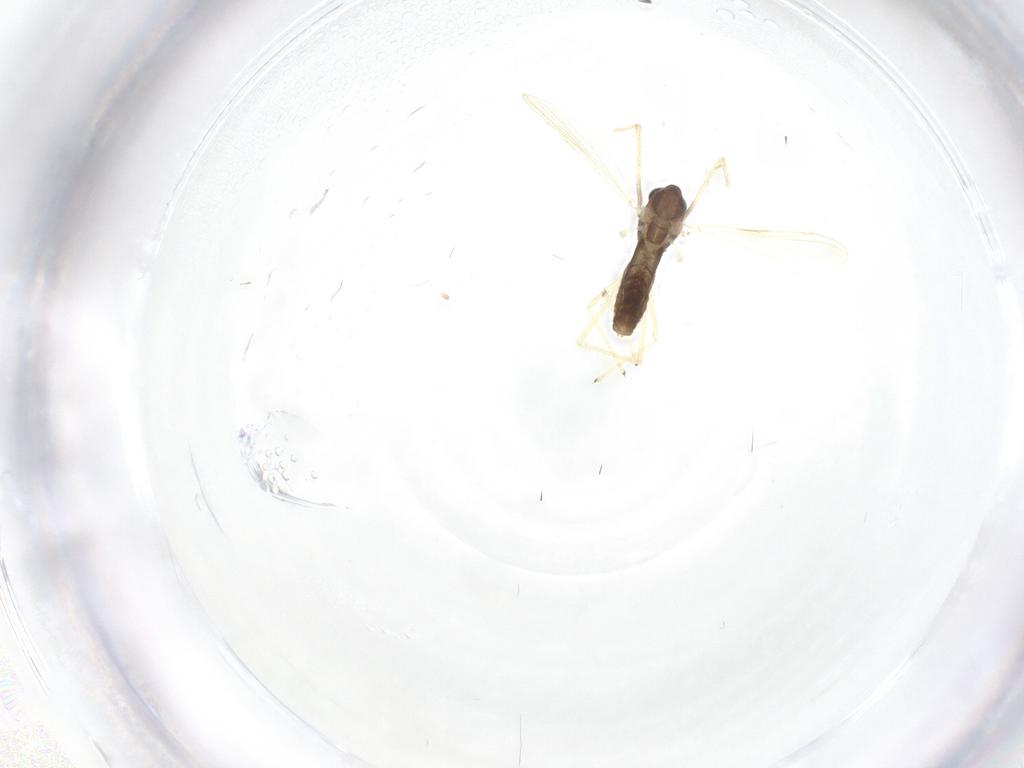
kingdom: Animalia
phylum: Arthropoda
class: Insecta
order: Diptera
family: Chironomidae
